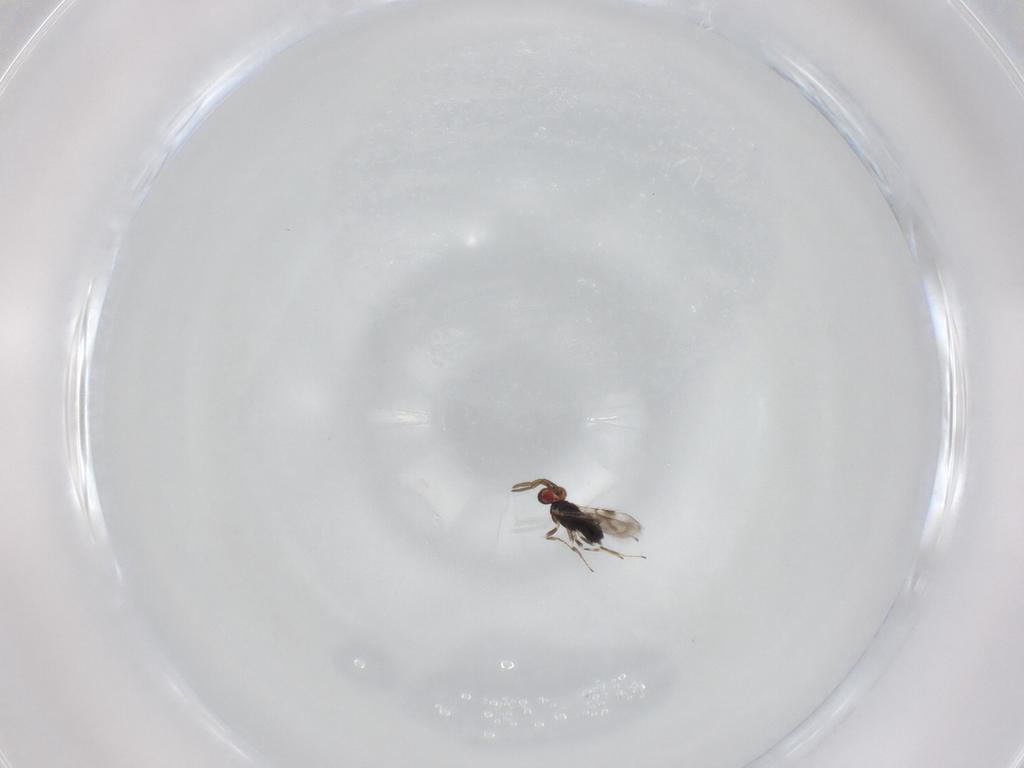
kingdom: Animalia
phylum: Arthropoda
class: Insecta
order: Hymenoptera
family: Azotidae
